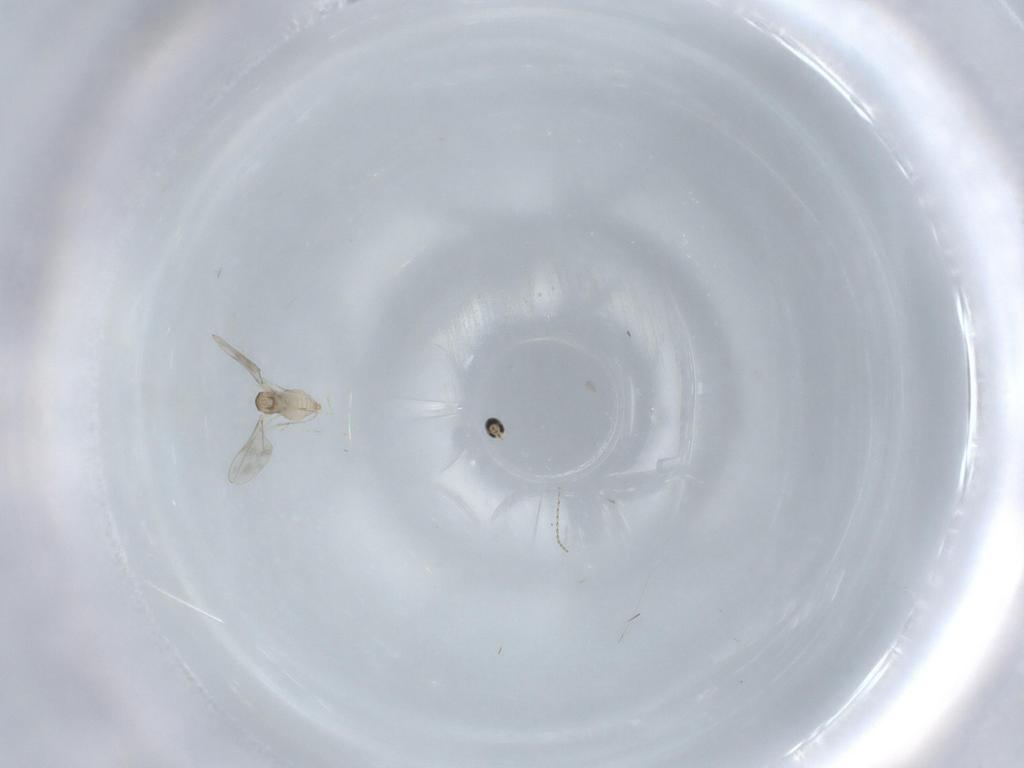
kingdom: Animalia
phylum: Arthropoda
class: Insecta
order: Diptera
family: Cecidomyiidae
